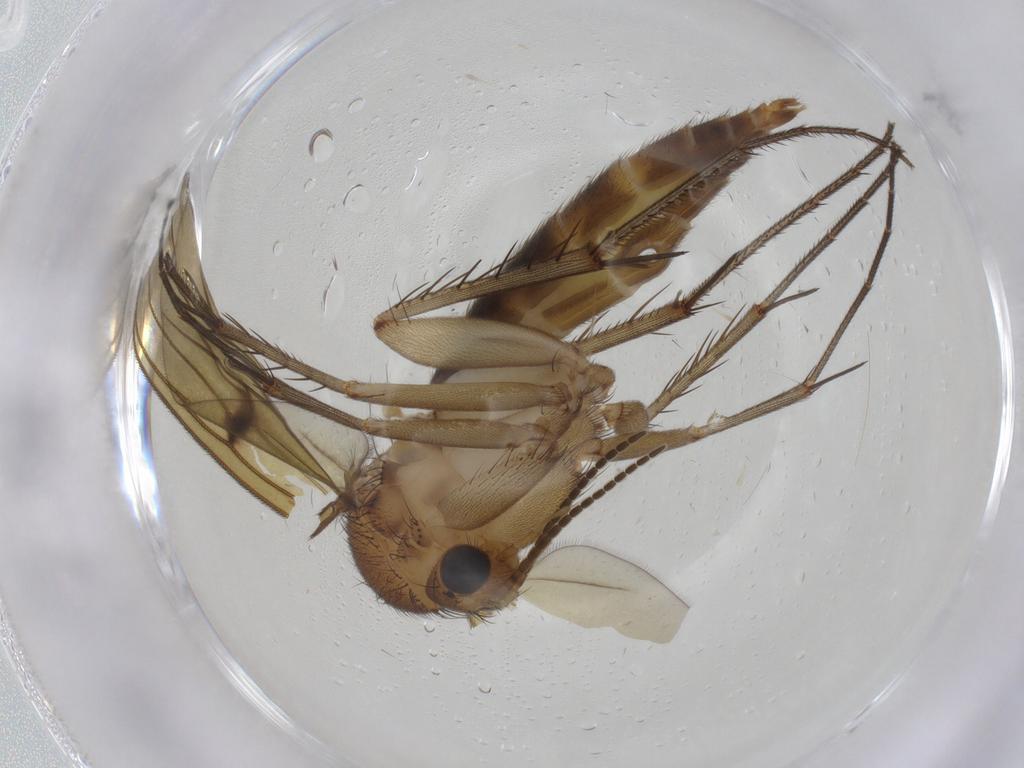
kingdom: Animalia
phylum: Arthropoda
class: Insecta
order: Diptera
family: Mycetophilidae
